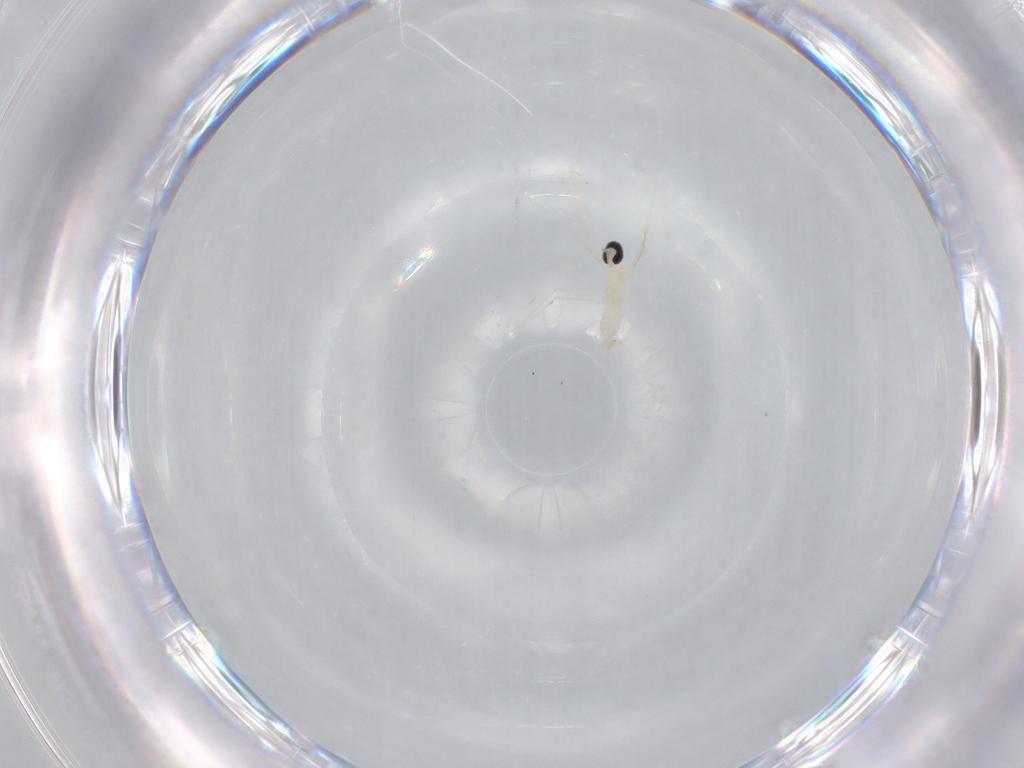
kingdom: Animalia
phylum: Arthropoda
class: Insecta
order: Diptera
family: Cecidomyiidae
